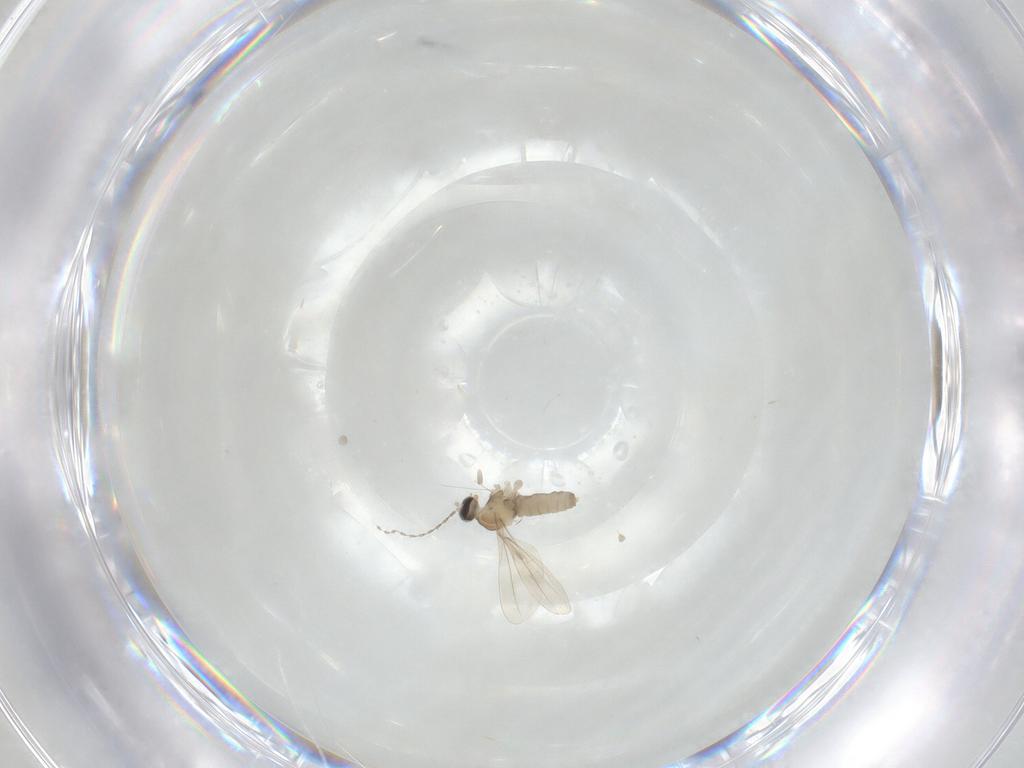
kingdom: Animalia
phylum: Arthropoda
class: Insecta
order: Diptera
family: Cecidomyiidae
